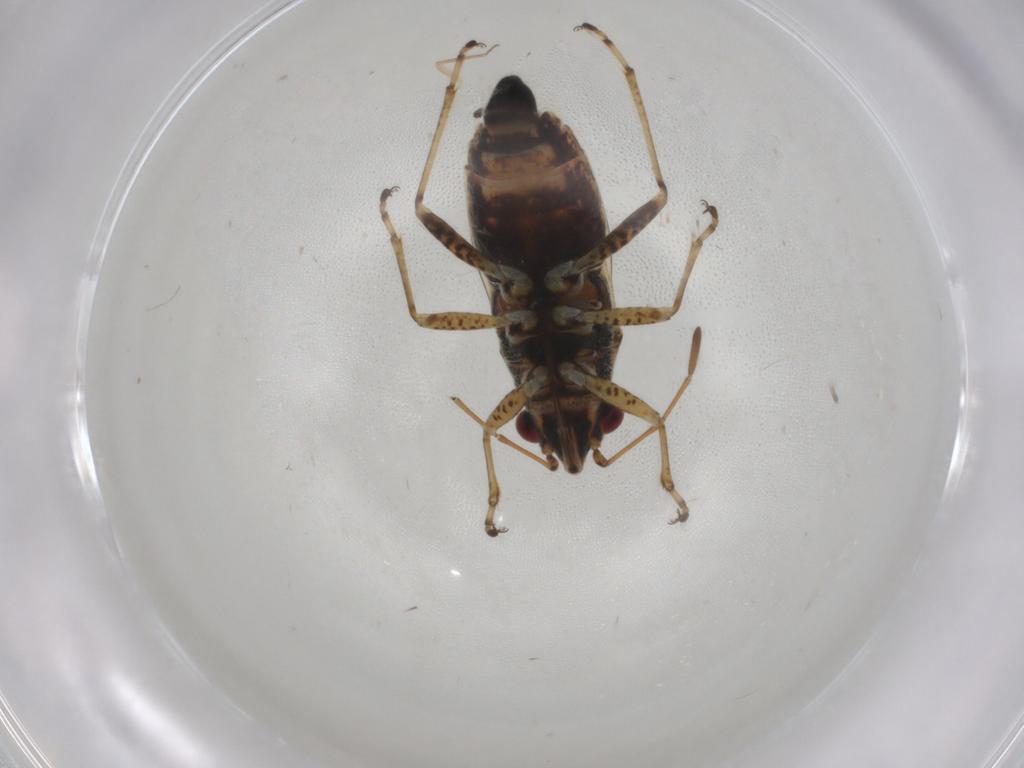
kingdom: Animalia
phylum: Arthropoda
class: Insecta
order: Hemiptera
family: Lygaeidae
